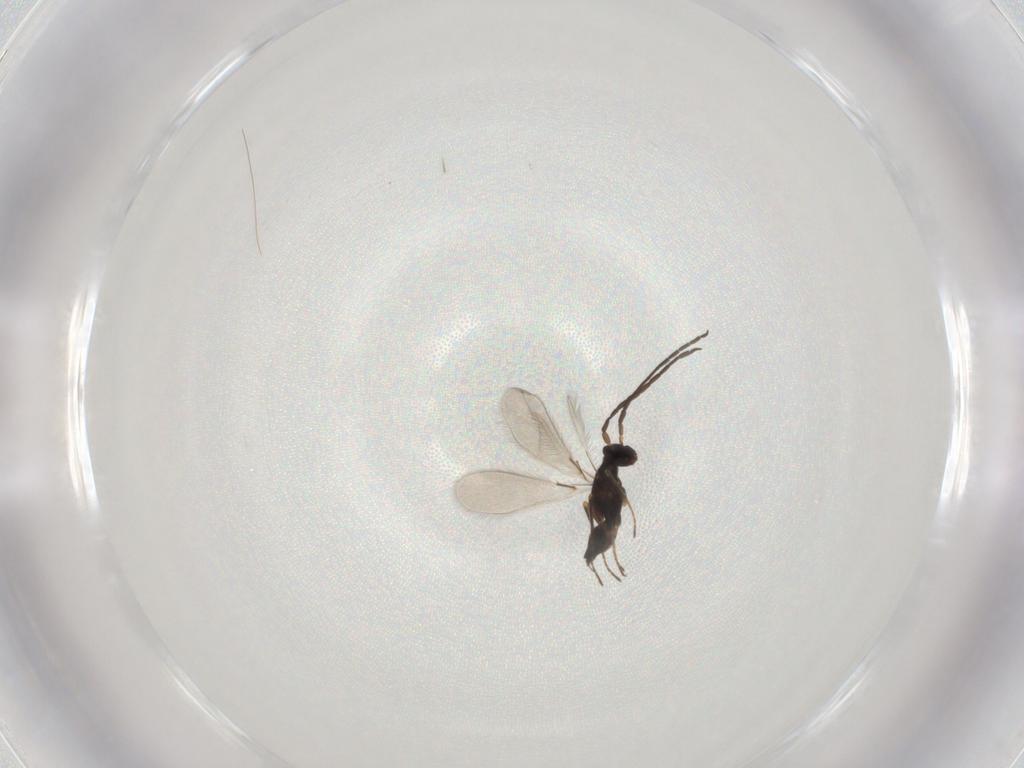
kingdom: Animalia
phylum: Arthropoda
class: Insecta
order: Hymenoptera
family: Mymaridae
